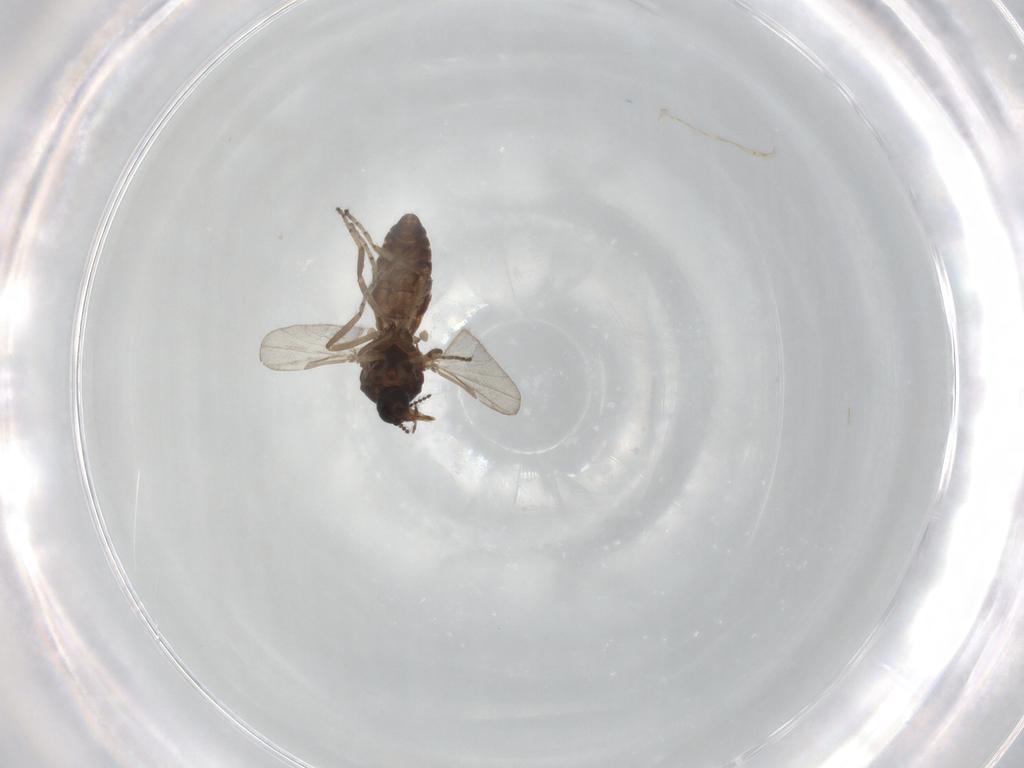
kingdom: Animalia
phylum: Arthropoda
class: Insecta
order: Diptera
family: Ceratopogonidae
